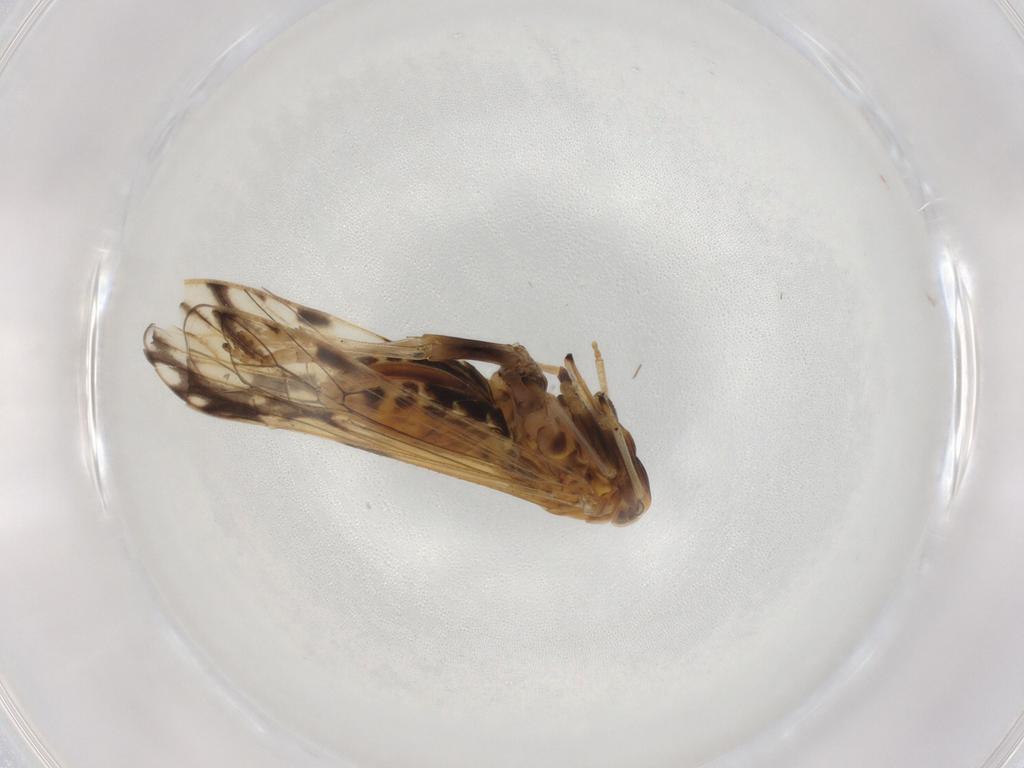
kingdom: Animalia
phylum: Arthropoda
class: Insecta
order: Hemiptera
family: Delphacidae
